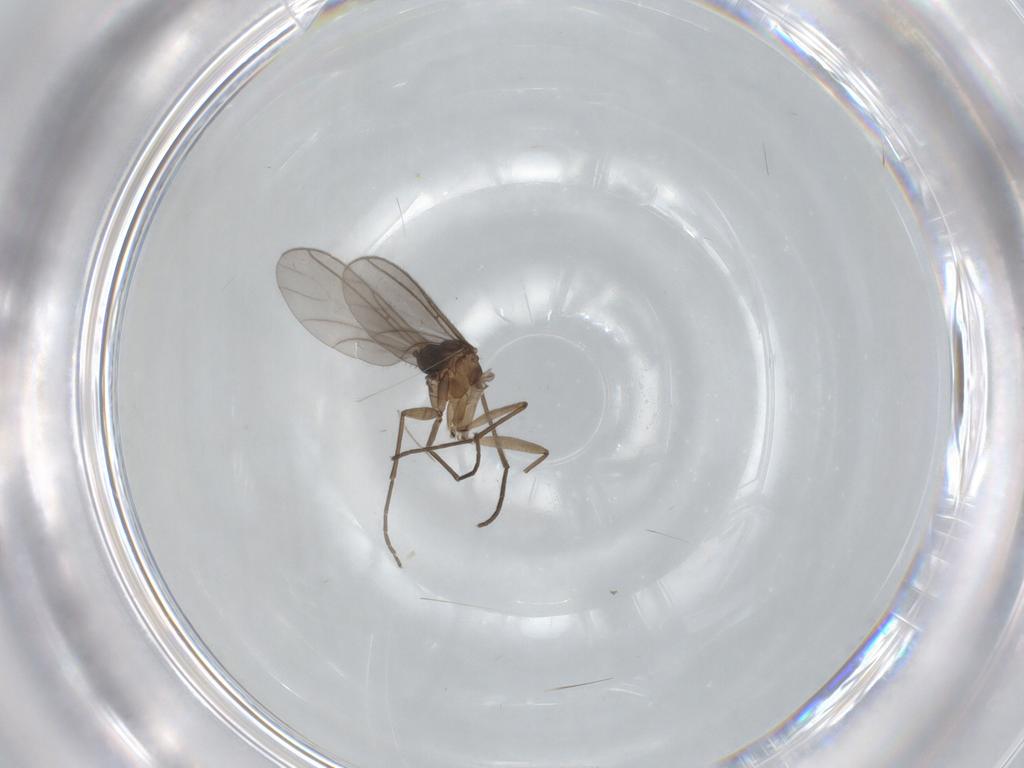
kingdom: Animalia
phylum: Arthropoda
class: Insecta
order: Diptera
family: Sciaridae
